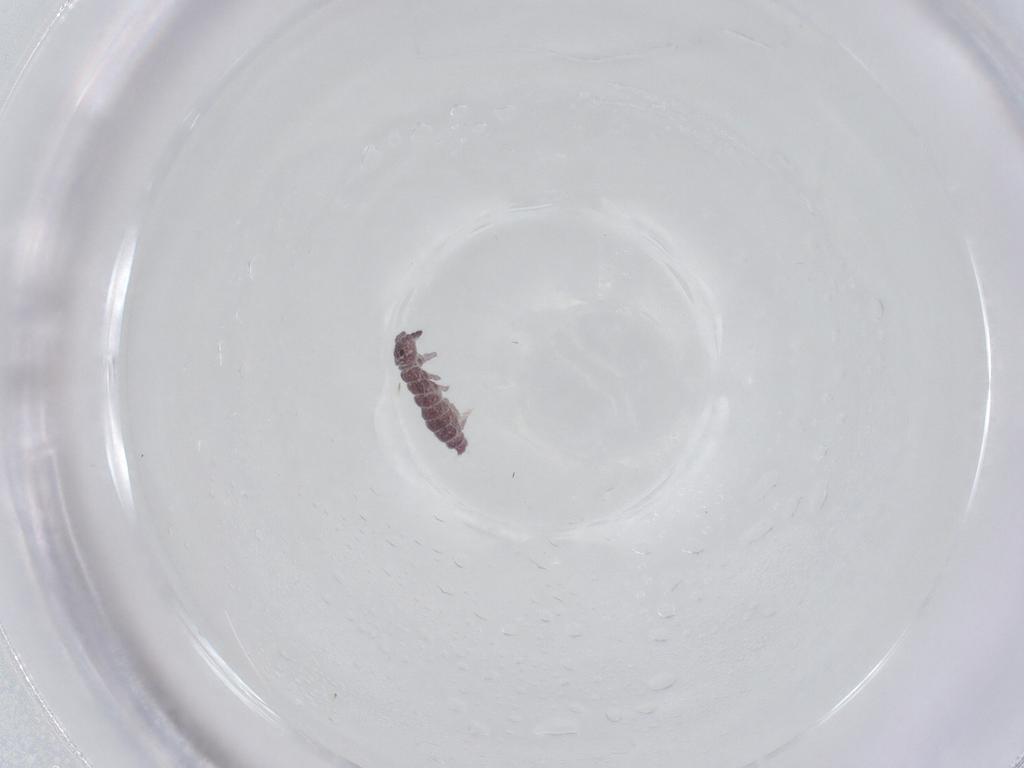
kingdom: Animalia
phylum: Arthropoda
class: Collembola
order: Poduromorpha
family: Hypogastruridae
